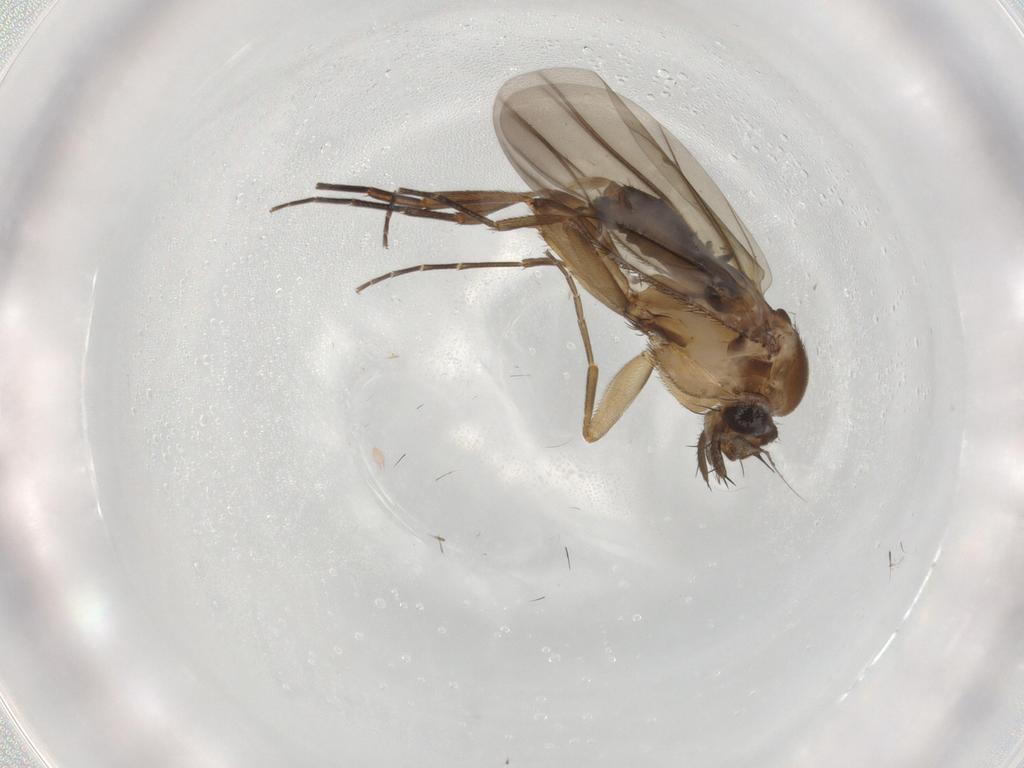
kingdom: Animalia
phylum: Arthropoda
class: Insecta
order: Diptera
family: Phoridae
